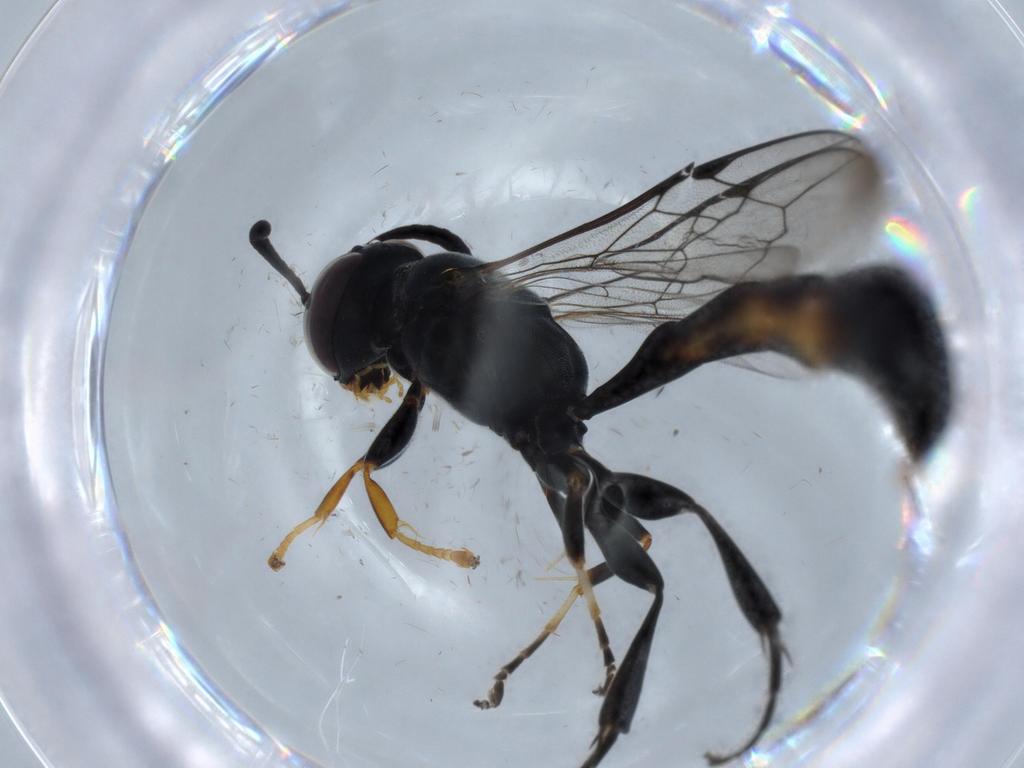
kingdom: Animalia
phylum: Arthropoda
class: Insecta
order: Hymenoptera
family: Crabronidae
